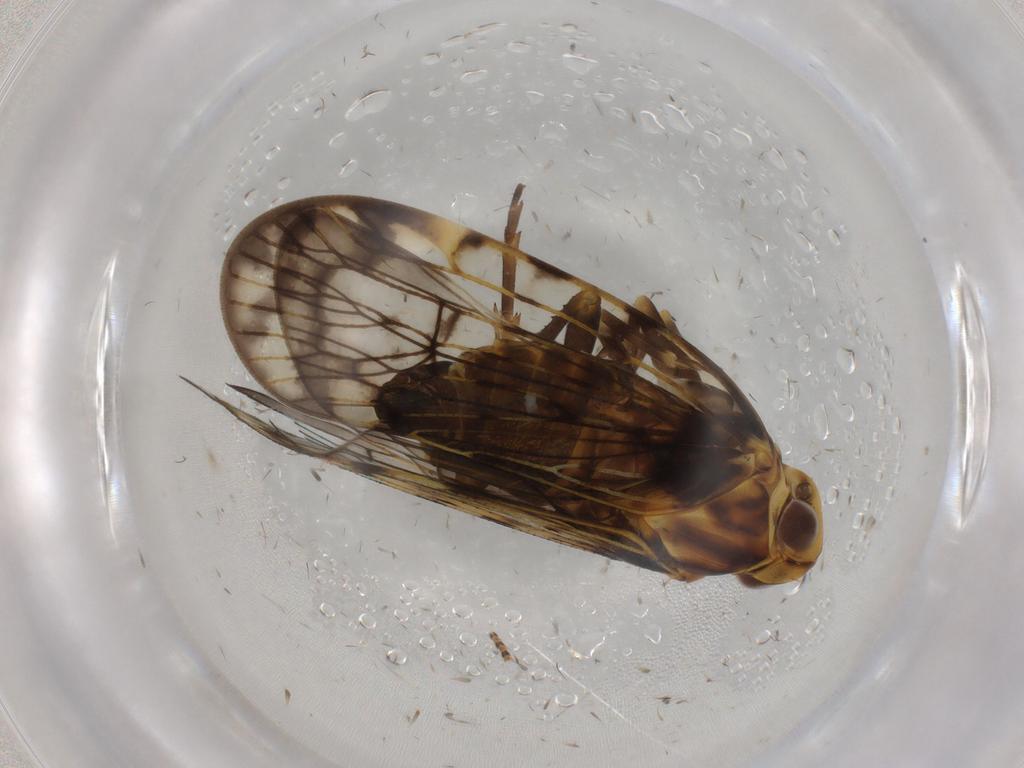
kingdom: Animalia
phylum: Arthropoda
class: Insecta
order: Hemiptera
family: Cixiidae
